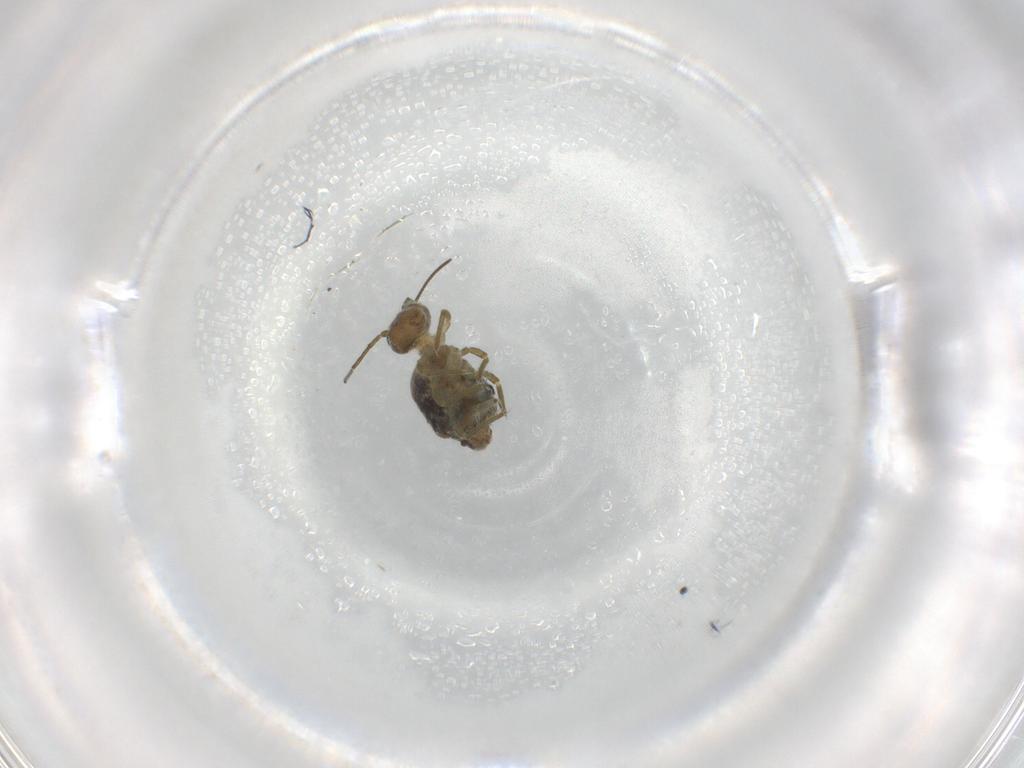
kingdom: Animalia
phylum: Arthropoda
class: Collembola
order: Symphypleona
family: Sminthuridae
